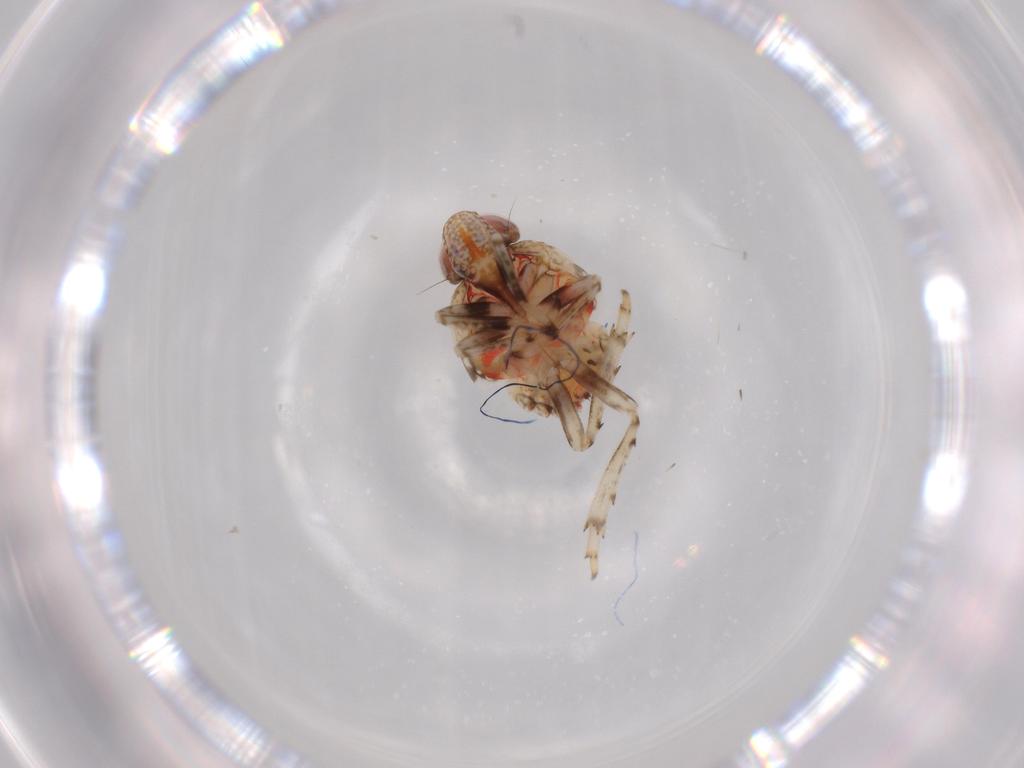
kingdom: Animalia
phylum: Arthropoda
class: Insecta
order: Hemiptera
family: Issidae
